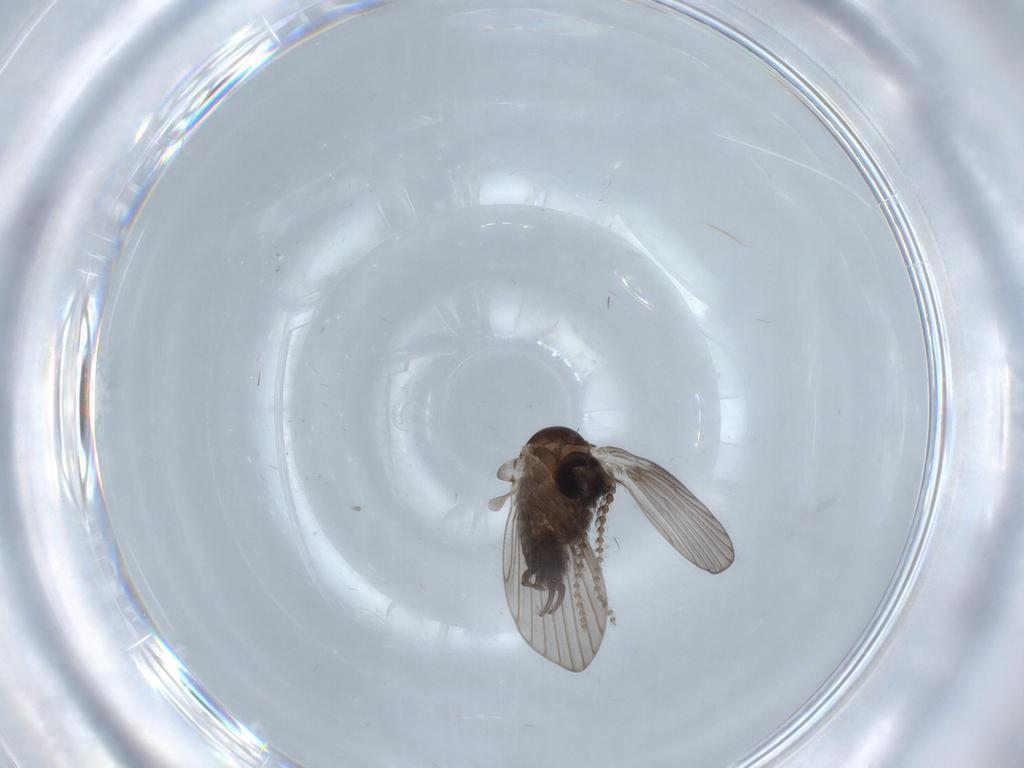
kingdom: Animalia
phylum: Arthropoda
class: Insecta
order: Diptera
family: Psychodidae
